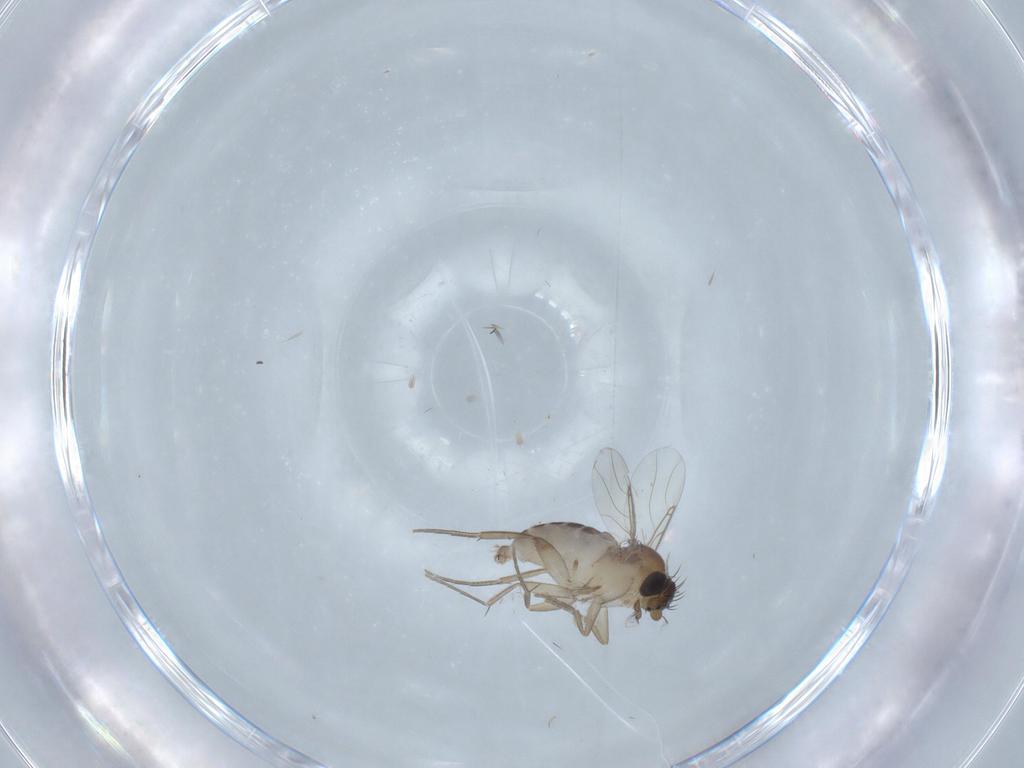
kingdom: Animalia
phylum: Arthropoda
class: Insecta
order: Diptera
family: Phoridae
